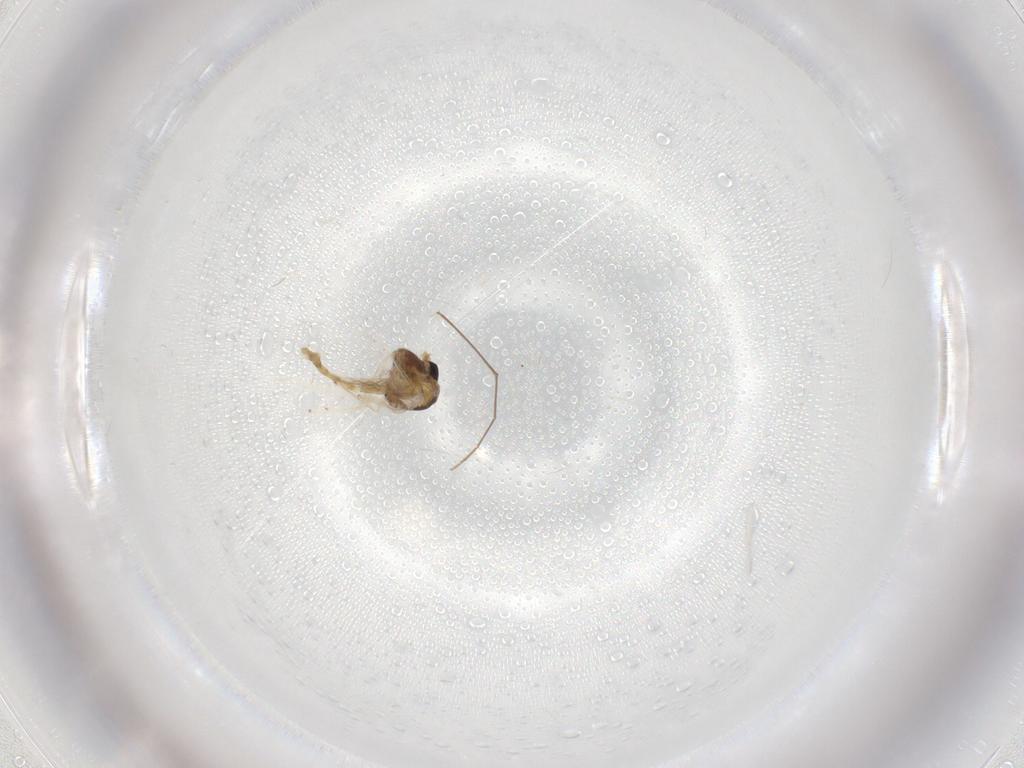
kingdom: Animalia
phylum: Arthropoda
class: Insecta
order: Diptera
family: Chironomidae
